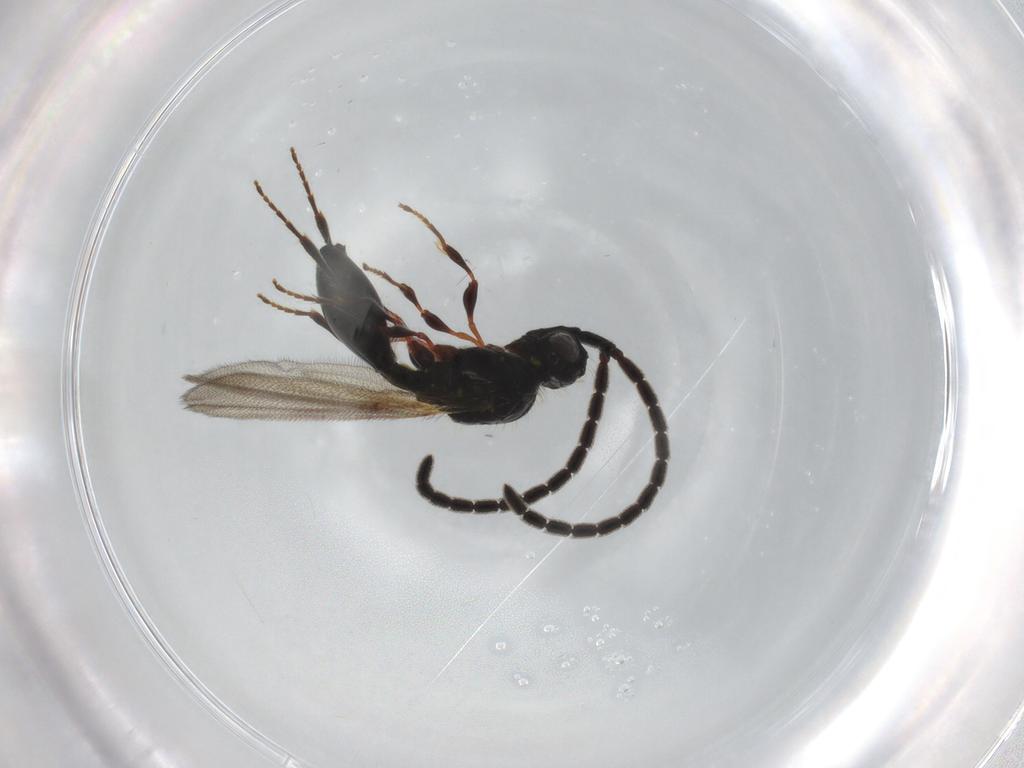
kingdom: Animalia
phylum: Arthropoda
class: Insecta
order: Hymenoptera
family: Diapriidae
